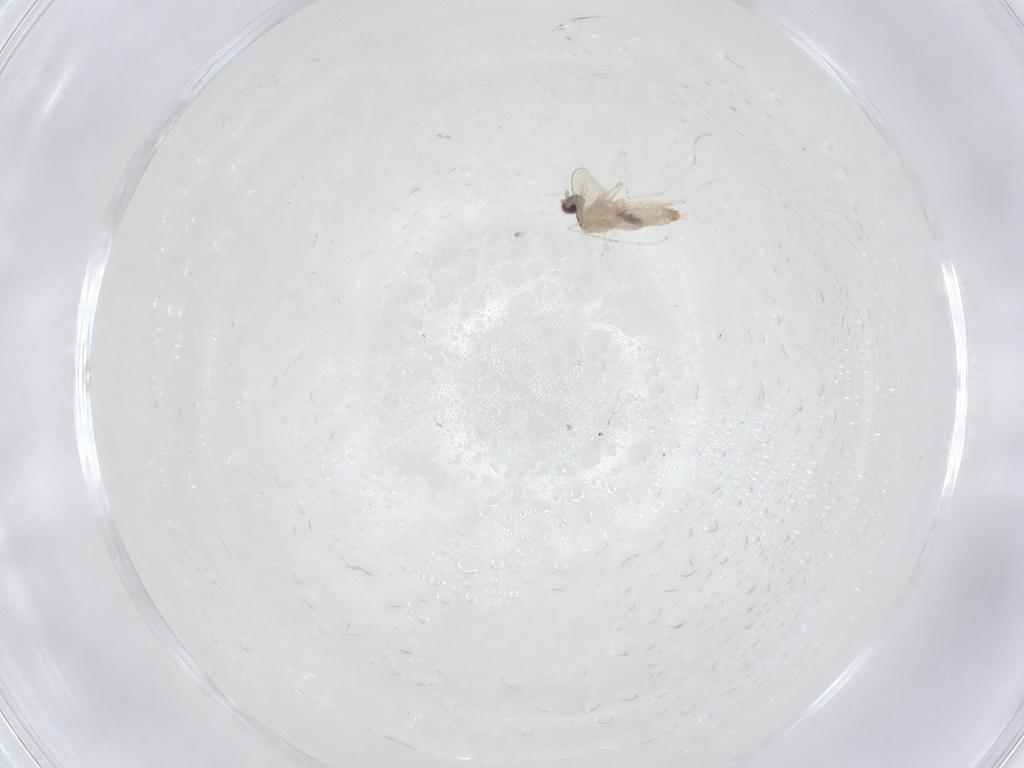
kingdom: Animalia
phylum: Arthropoda
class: Insecta
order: Diptera
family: Cecidomyiidae
